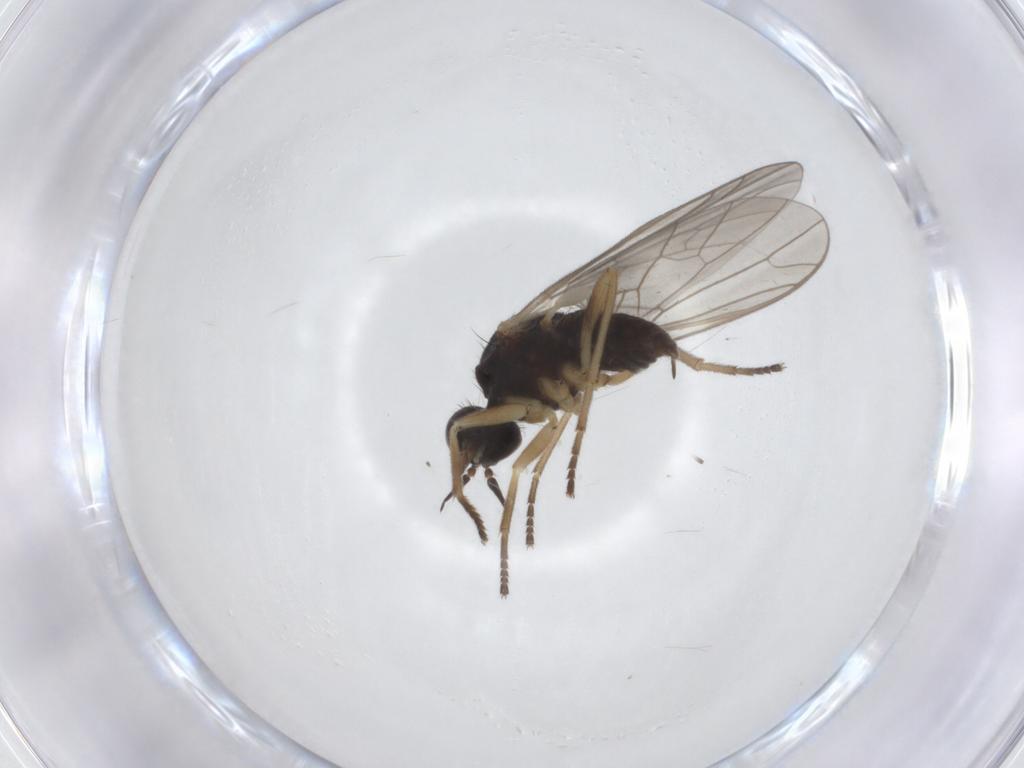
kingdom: Animalia
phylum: Arthropoda
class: Insecta
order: Diptera
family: Empididae
